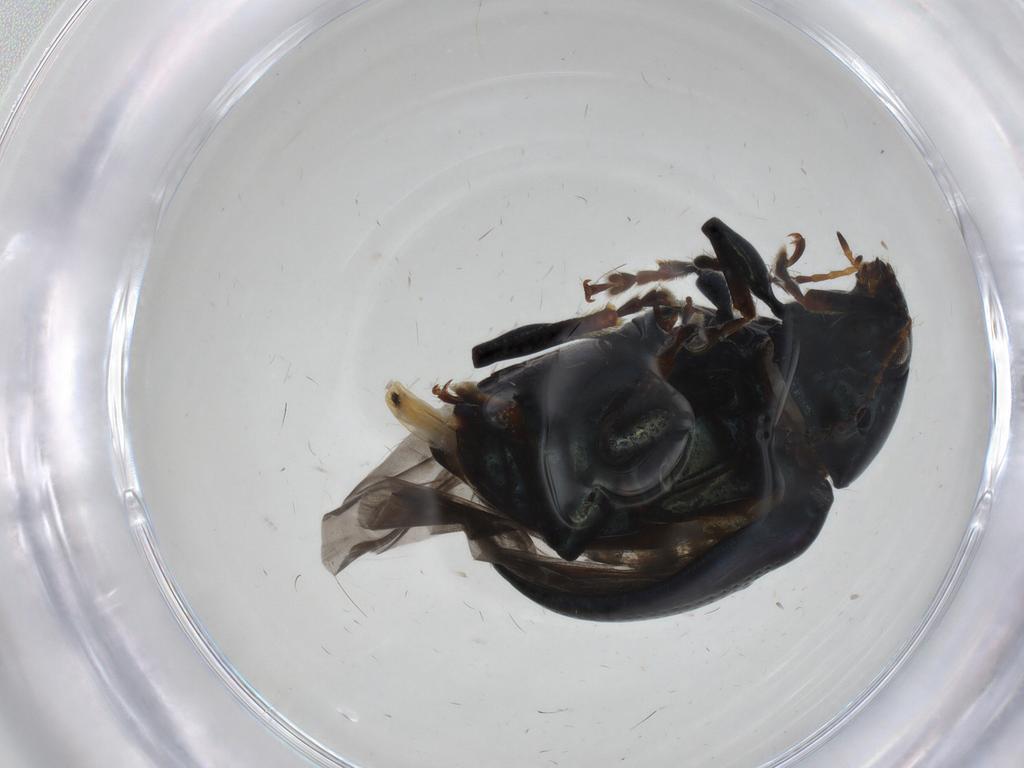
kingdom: Animalia
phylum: Arthropoda
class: Insecta
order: Coleoptera
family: Chrysomelidae
